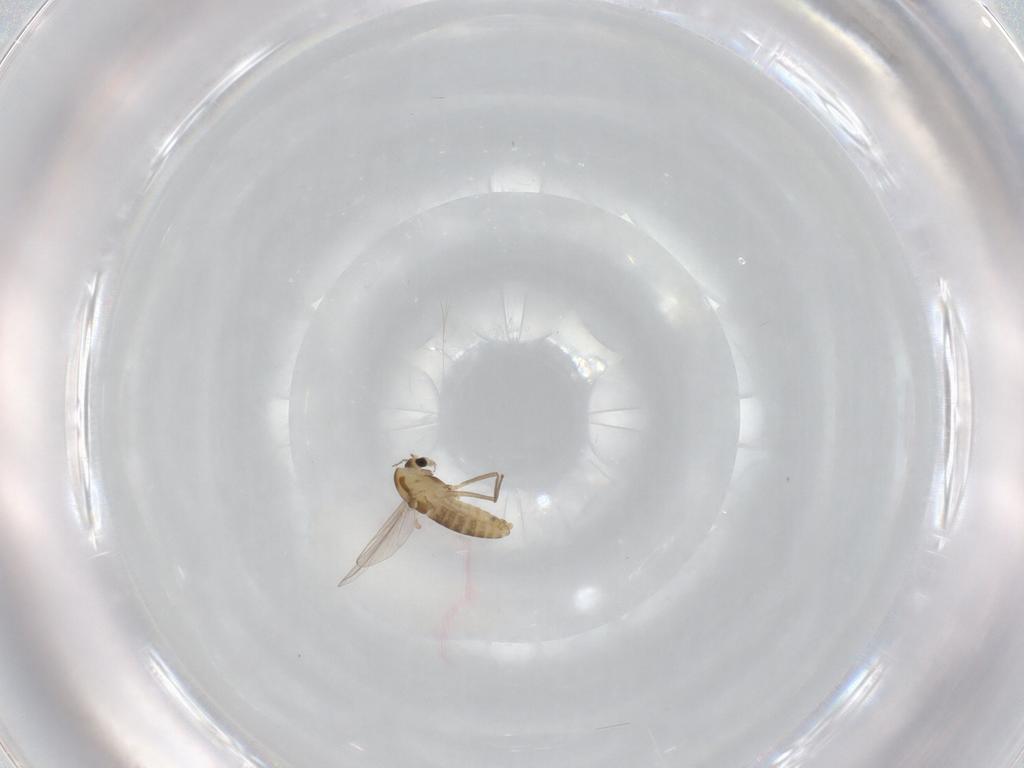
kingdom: Animalia
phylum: Arthropoda
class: Insecta
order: Diptera
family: Chironomidae
